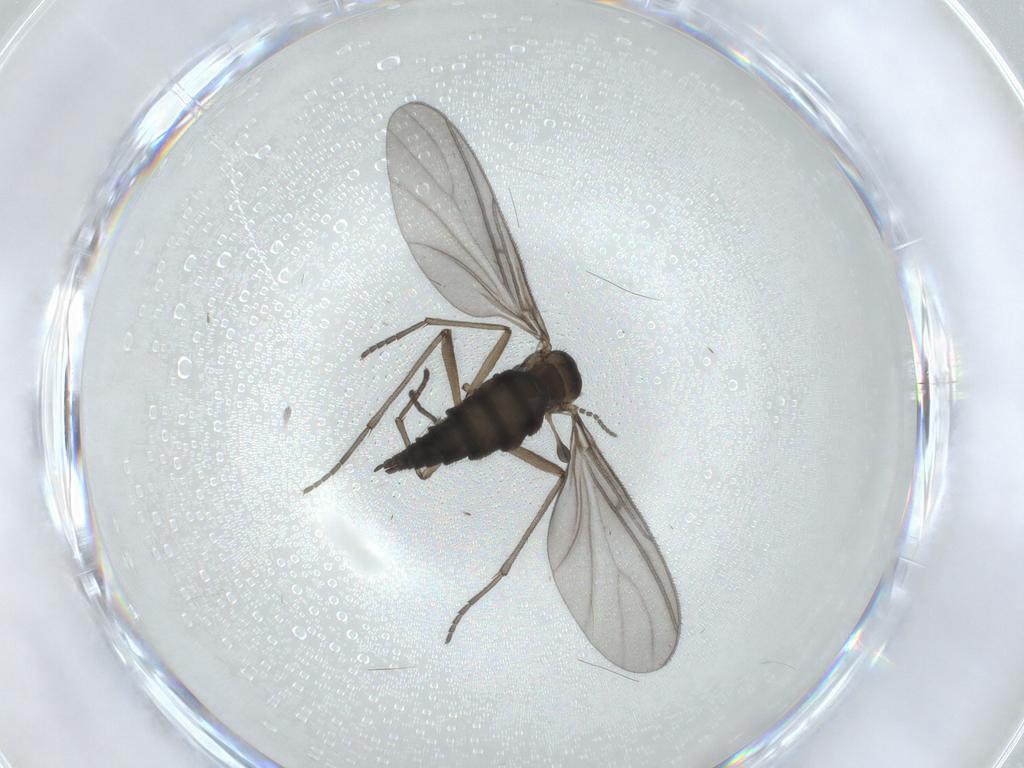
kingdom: Animalia
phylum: Arthropoda
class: Insecta
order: Diptera
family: Sciaridae
